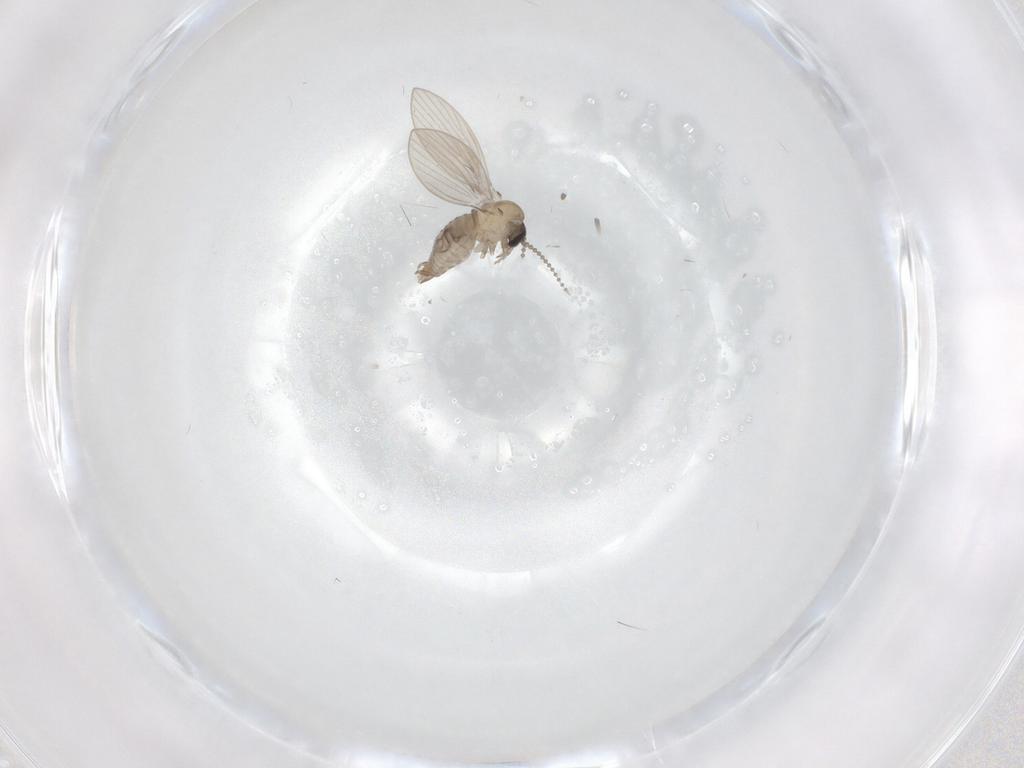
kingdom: Animalia
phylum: Arthropoda
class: Insecta
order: Diptera
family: Psychodidae
